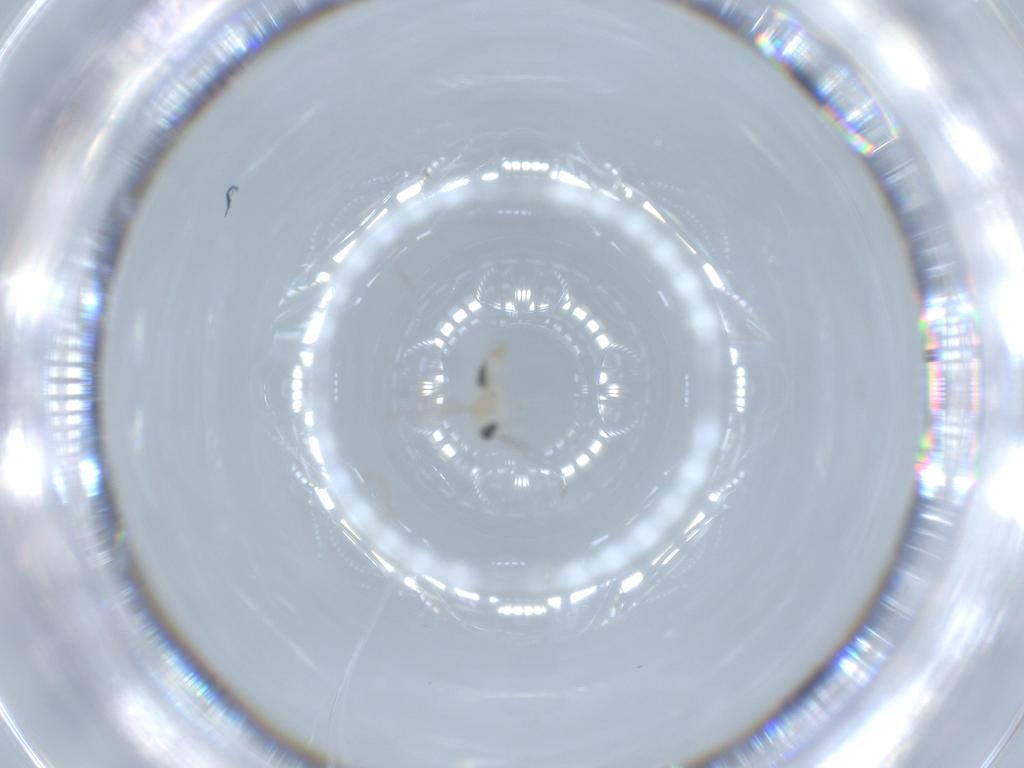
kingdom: Animalia
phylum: Arthropoda
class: Insecta
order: Diptera
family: Cecidomyiidae
